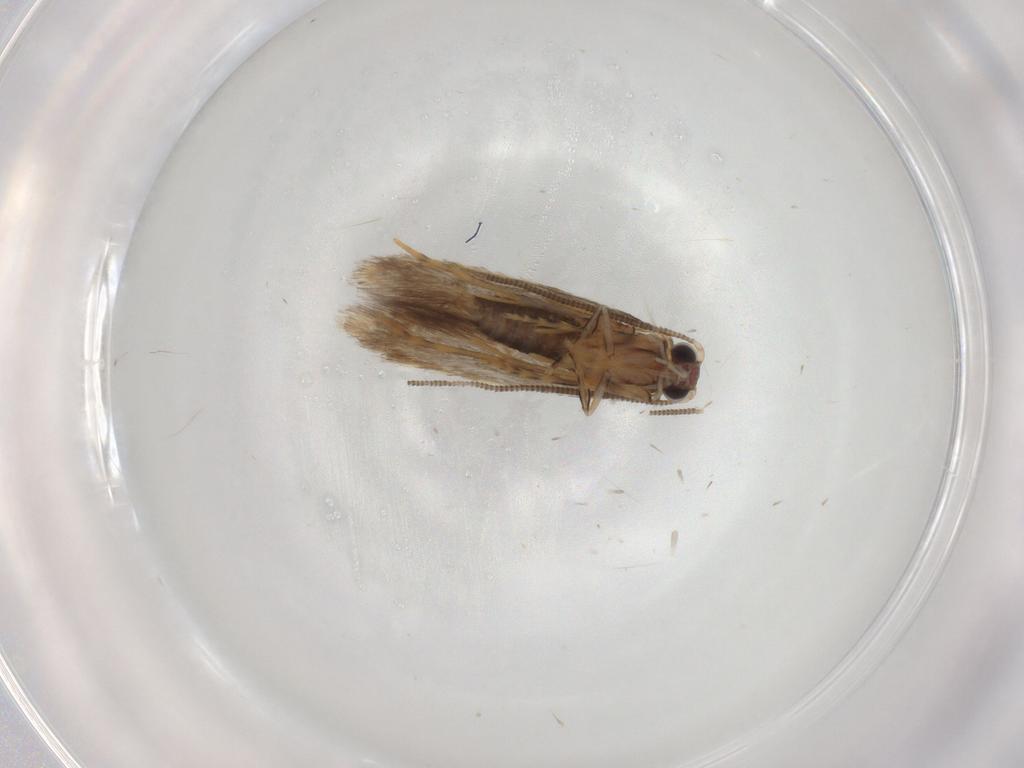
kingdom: Animalia
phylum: Arthropoda
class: Insecta
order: Lepidoptera
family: Tineidae
